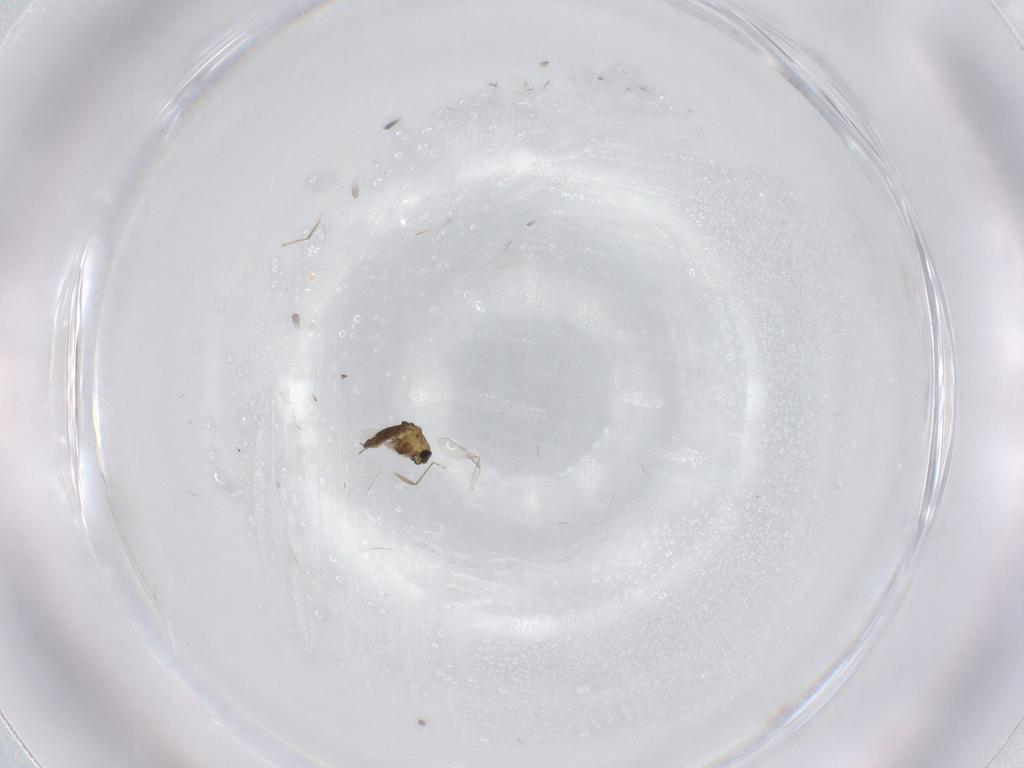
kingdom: Animalia
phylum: Arthropoda
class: Insecta
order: Diptera
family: Chironomidae
